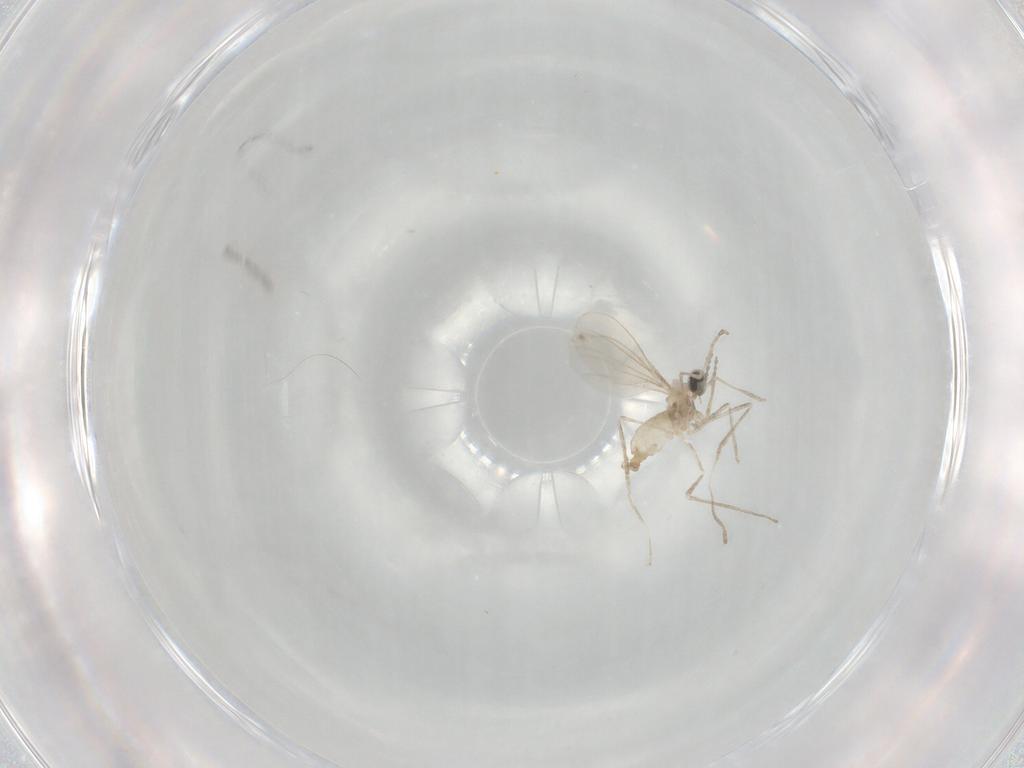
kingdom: Animalia
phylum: Arthropoda
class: Insecta
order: Diptera
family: Cecidomyiidae
